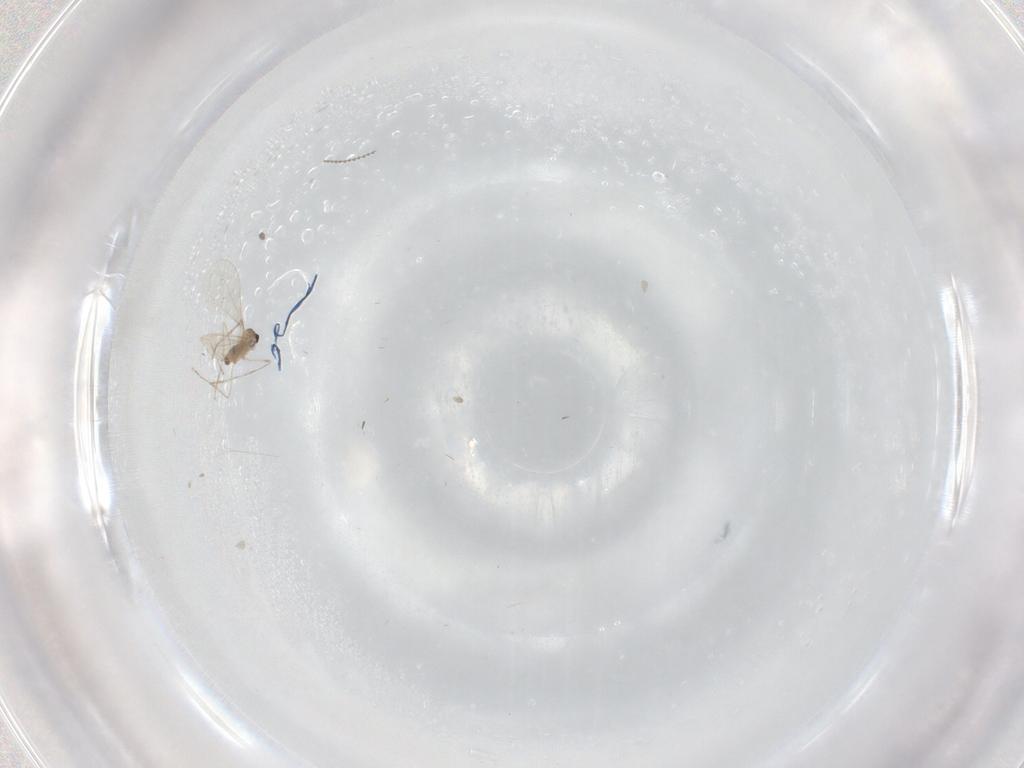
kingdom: Animalia
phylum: Arthropoda
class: Insecta
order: Diptera
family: Cecidomyiidae
